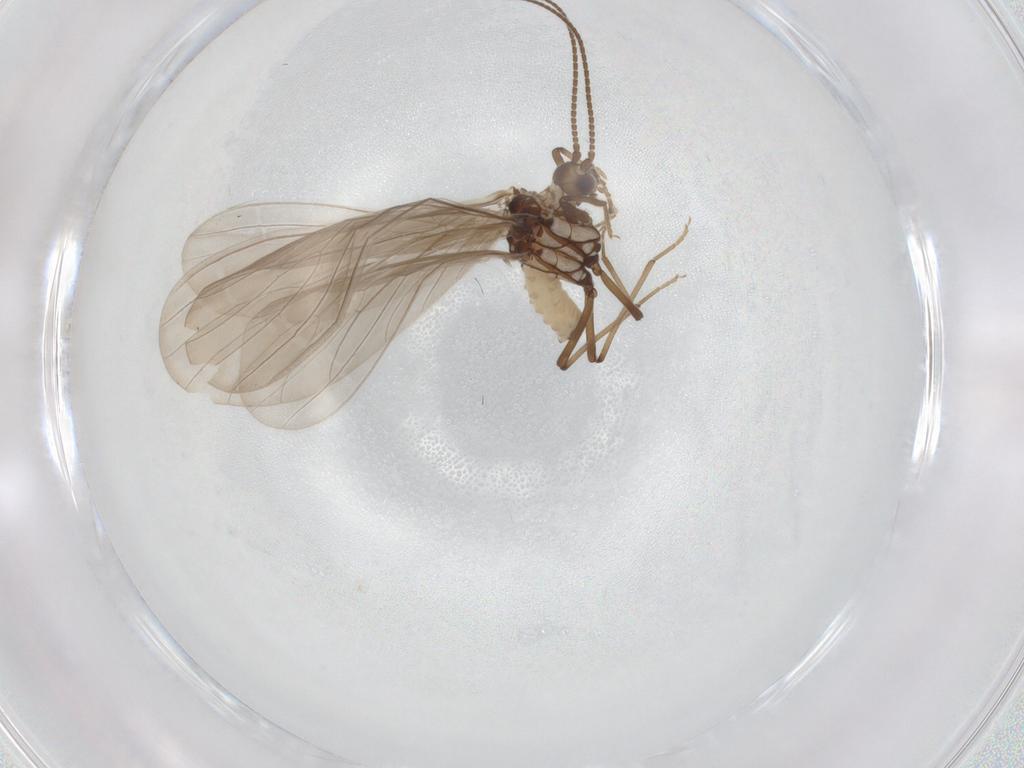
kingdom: Animalia
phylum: Arthropoda
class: Insecta
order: Neuroptera
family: Coniopterygidae
